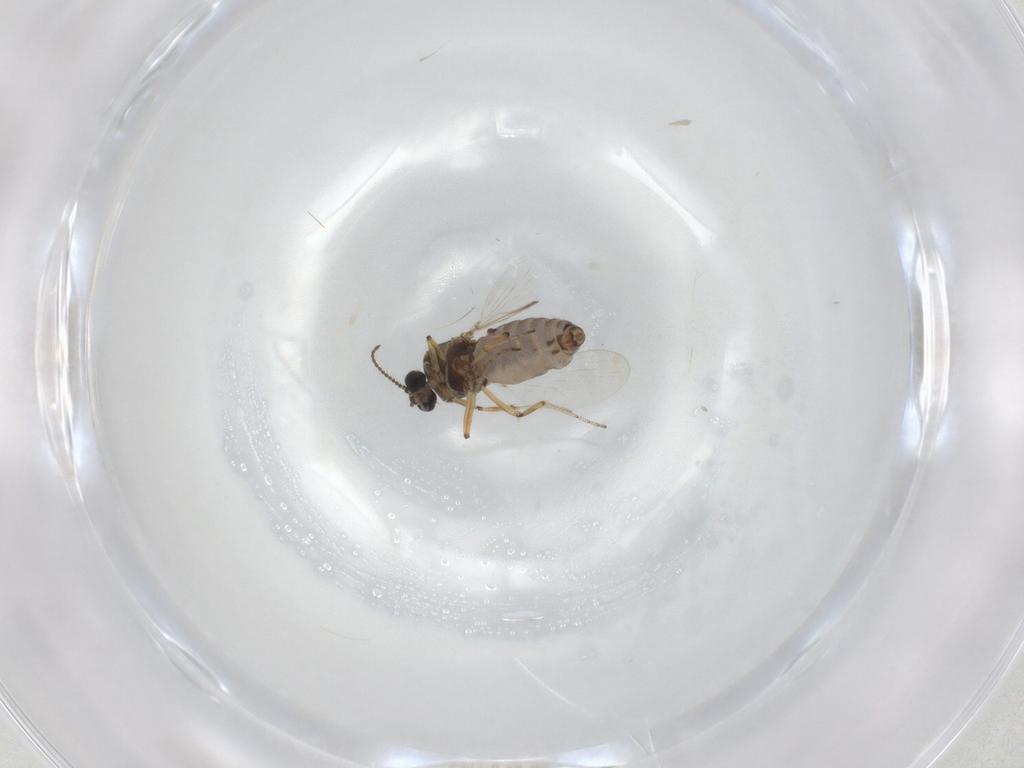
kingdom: Animalia
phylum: Arthropoda
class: Insecta
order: Diptera
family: Ceratopogonidae
